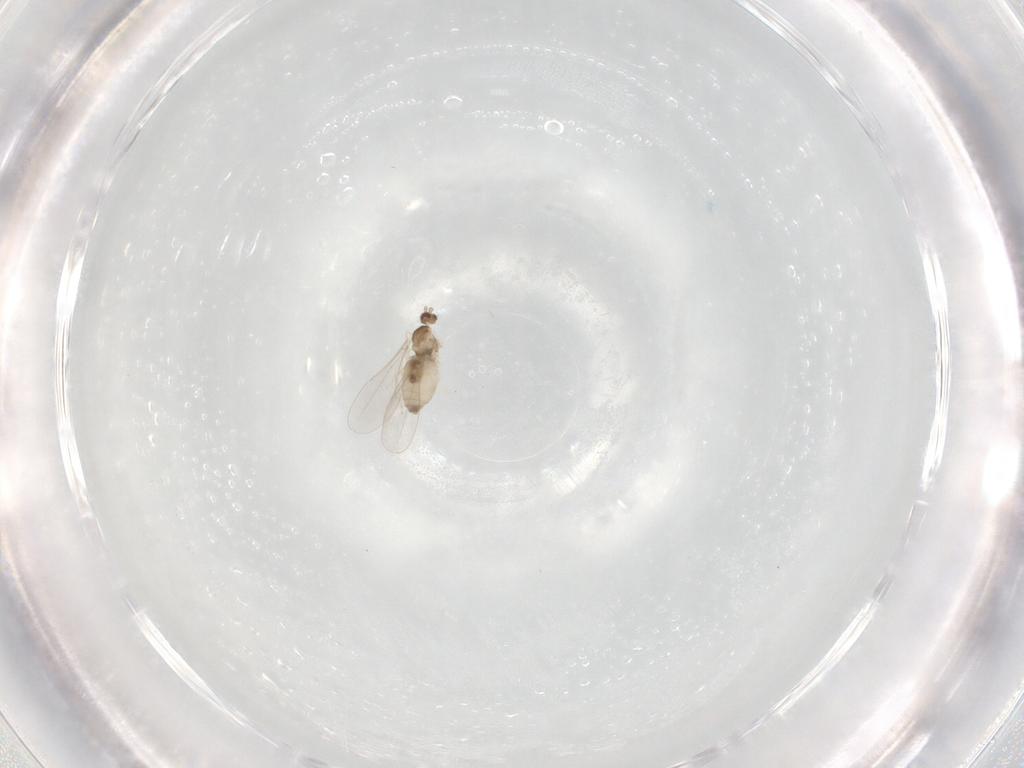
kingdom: Animalia
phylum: Arthropoda
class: Insecta
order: Diptera
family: Cecidomyiidae
